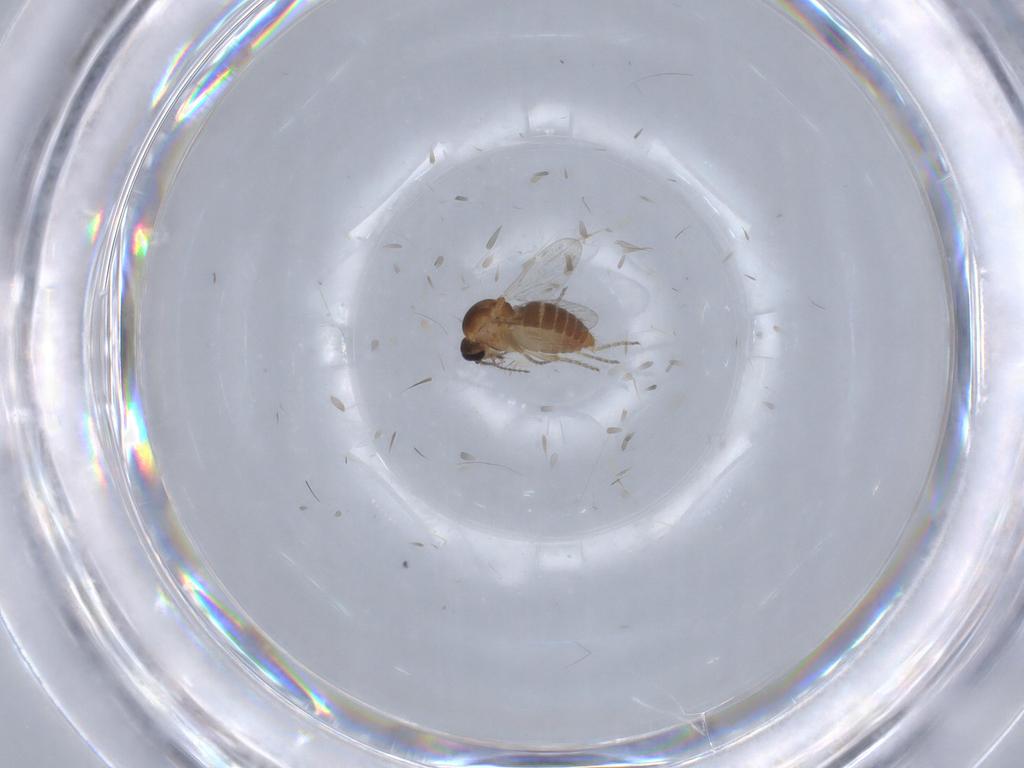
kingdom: Animalia
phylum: Arthropoda
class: Insecta
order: Diptera
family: Ceratopogonidae
